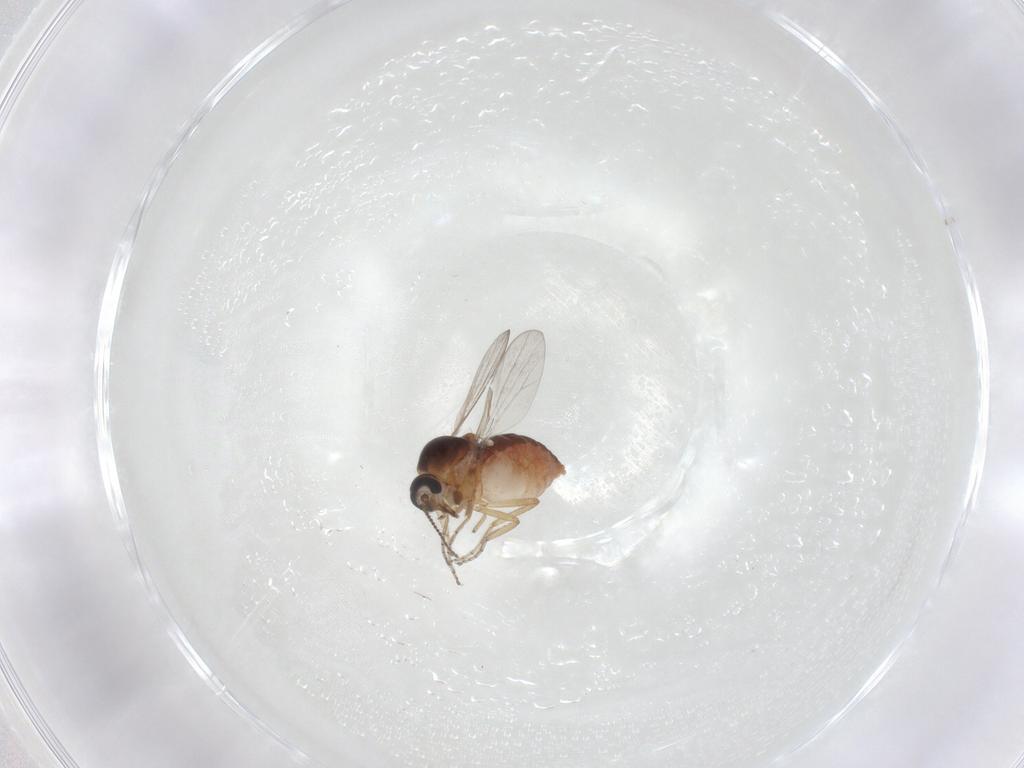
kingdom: Animalia
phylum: Arthropoda
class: Insecta
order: Diptera
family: Ceratopogonidae
